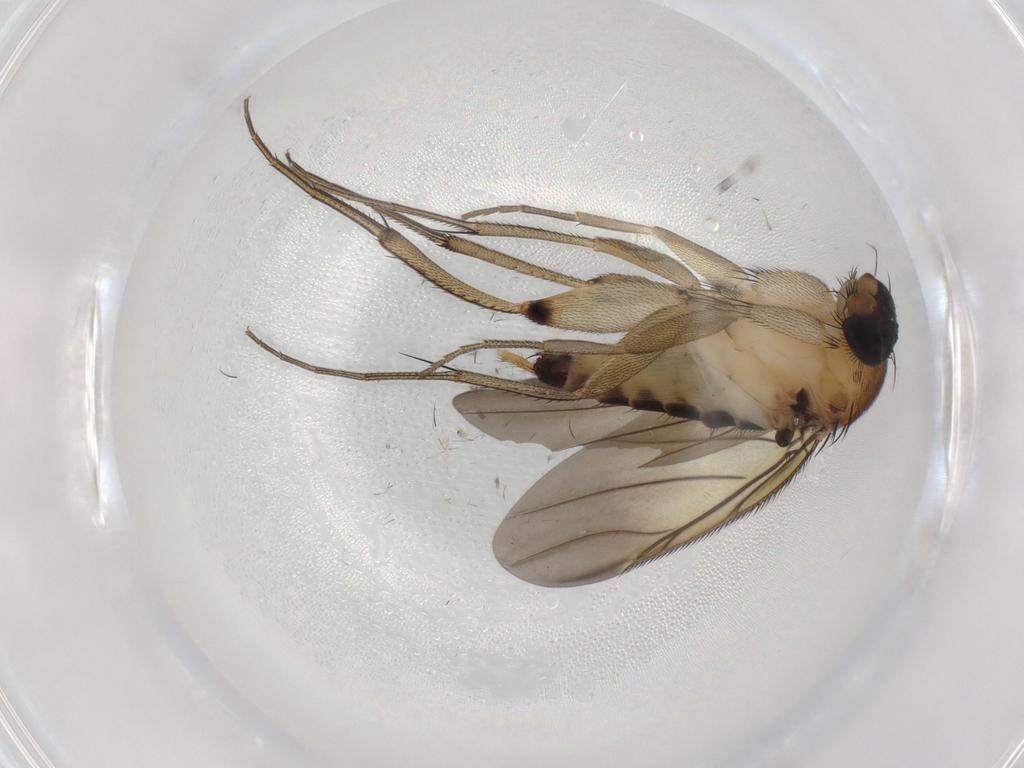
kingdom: Animalia
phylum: Arthropoda
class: Insecta
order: Diptera
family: Phoridae
